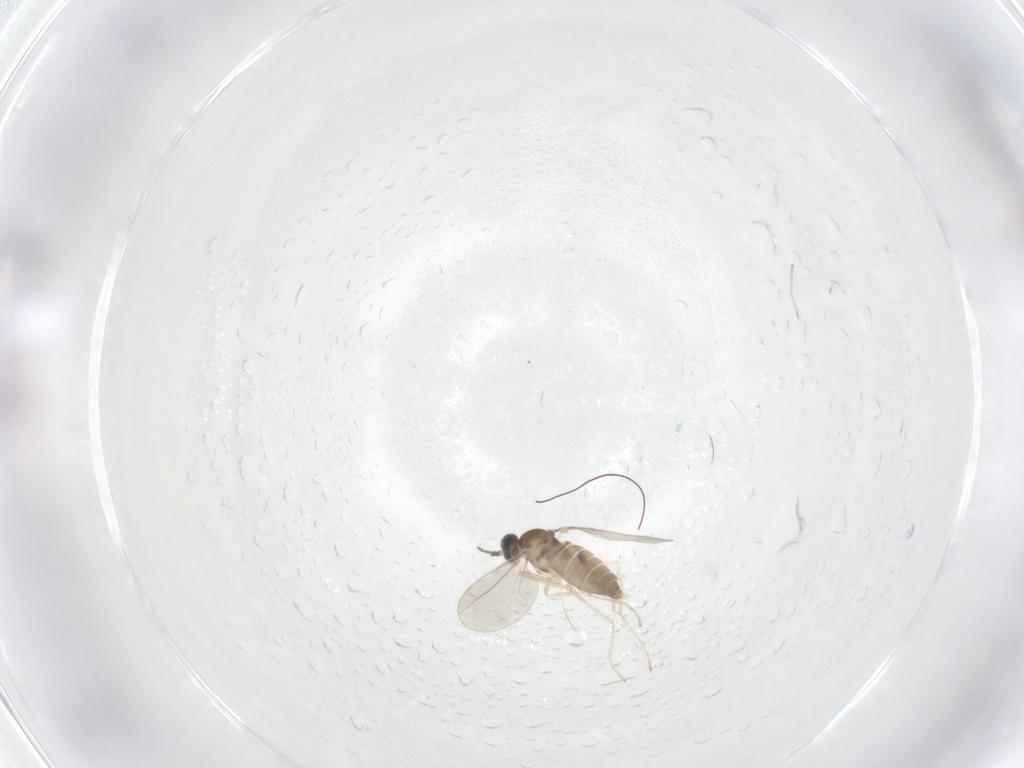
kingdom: Animalia
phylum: Arthropoda
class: Insecta
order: Diptera
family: Cecidomyiidae
